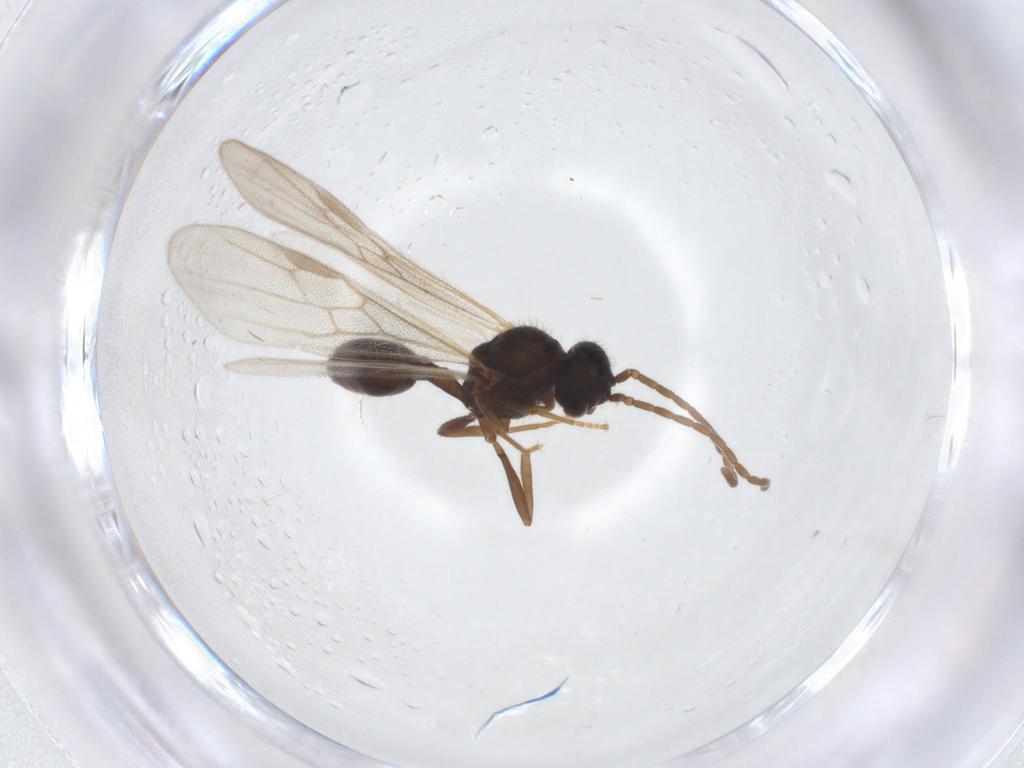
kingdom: Animalia
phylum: Arthropoda
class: Insecta
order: Hymenoptera
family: Formicidae
